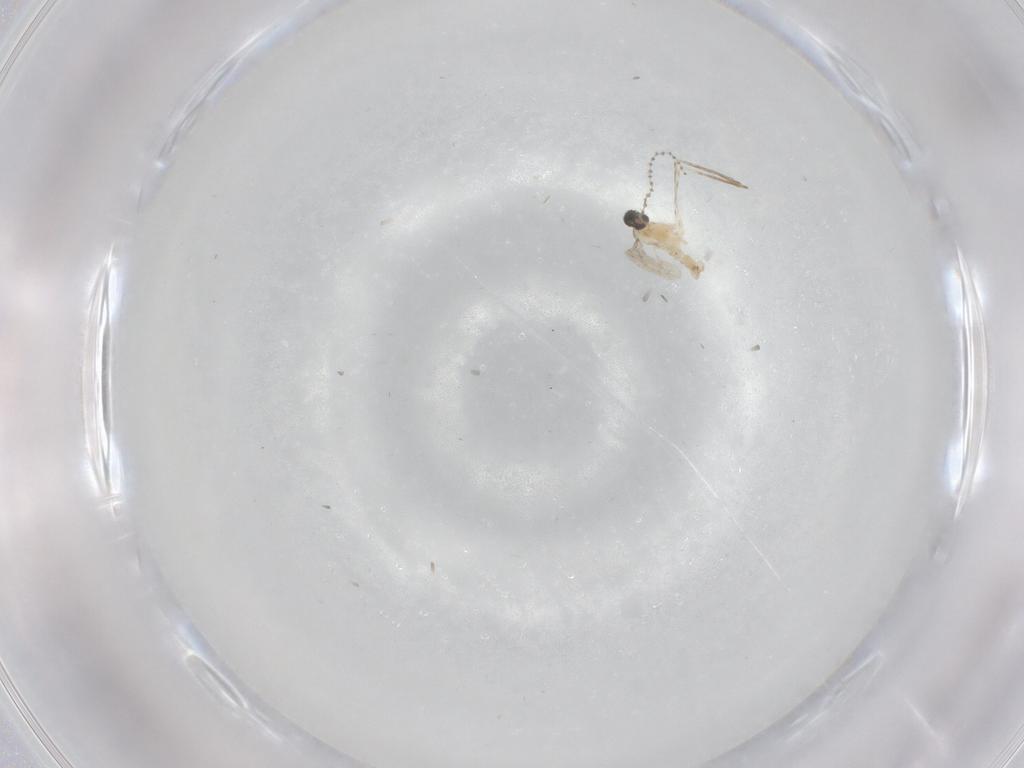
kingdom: Animalia
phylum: Arthropoda
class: Insecta
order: Diptera
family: Cecidomyiidae
